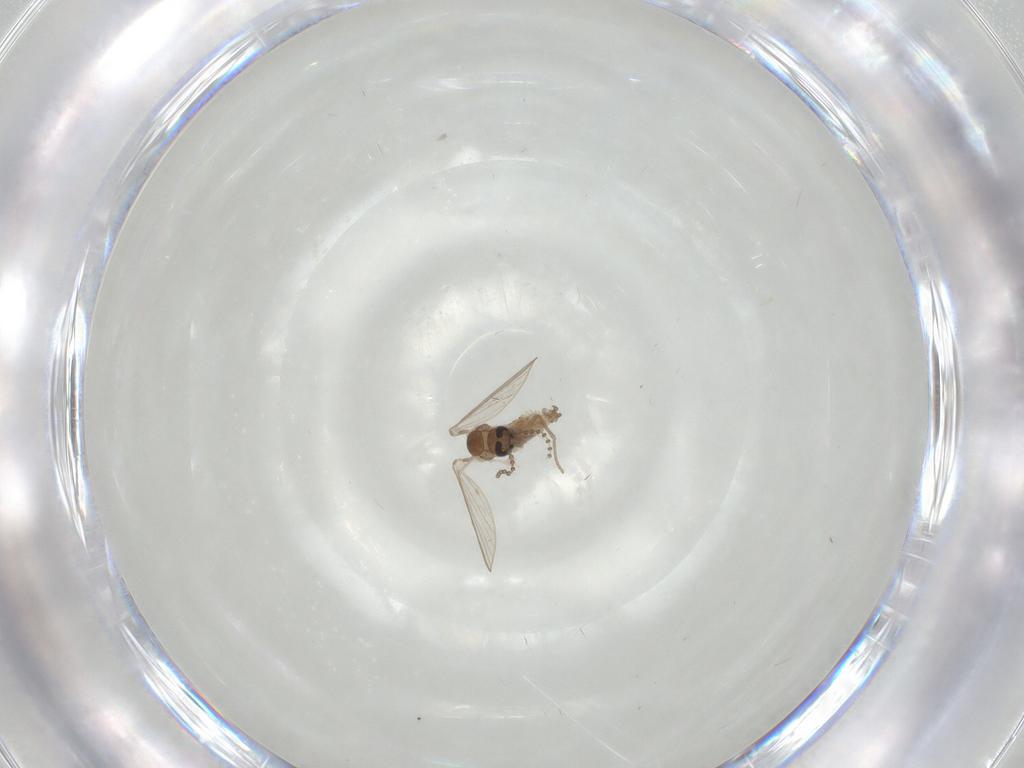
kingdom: Animalia
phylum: Arthropoda
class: Insecta
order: Diptera
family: Psychodidae
